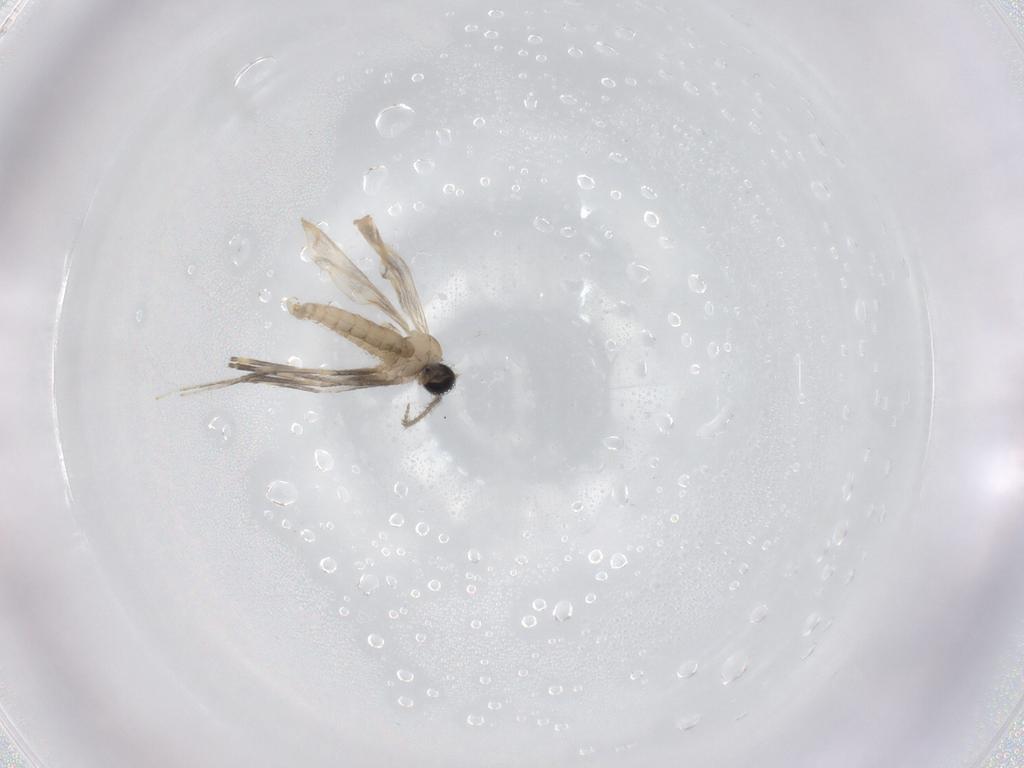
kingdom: Animalia
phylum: Arthropoda
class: Insecta
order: Diptera
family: Cecidomyiidae
